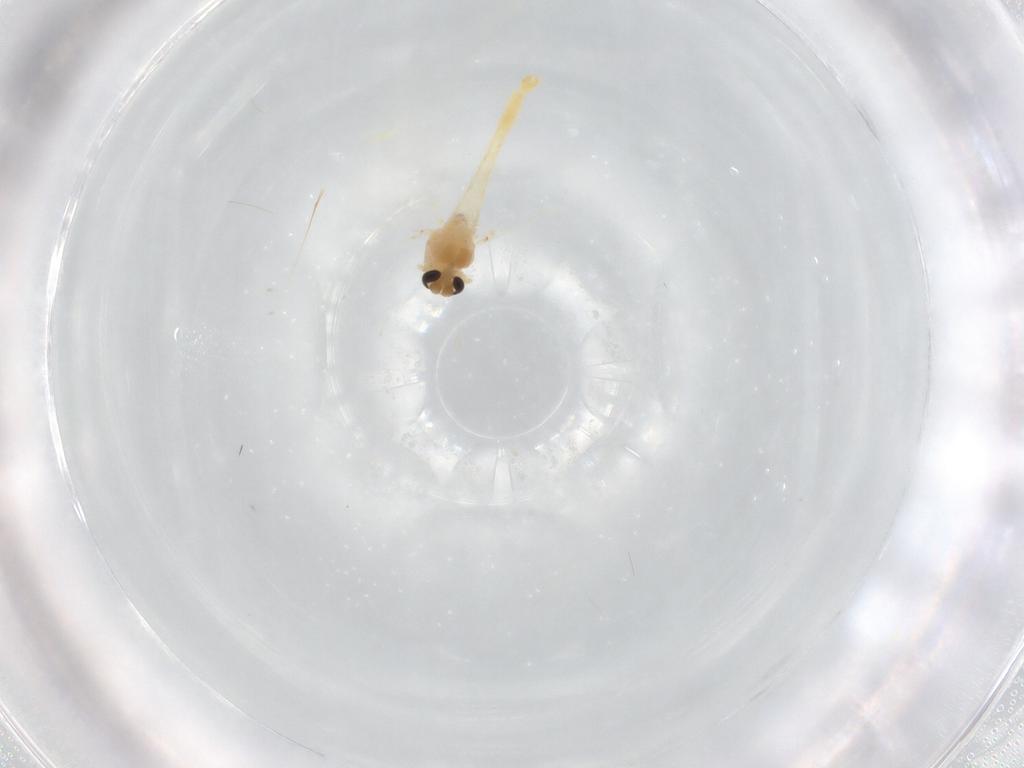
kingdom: Animalia
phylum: Arthropoda
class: Insecta
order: Diptera
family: Chironomidae
